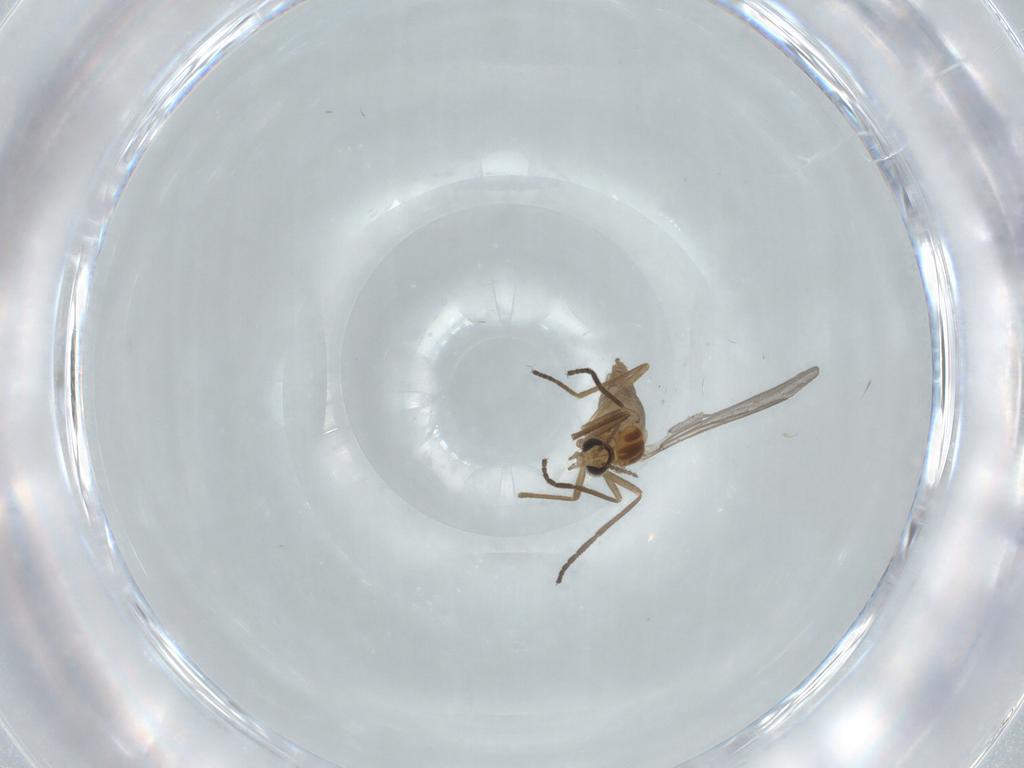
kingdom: Animalia
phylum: Arthropoda
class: Insecta
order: Diptera
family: Cecidomyiidae
